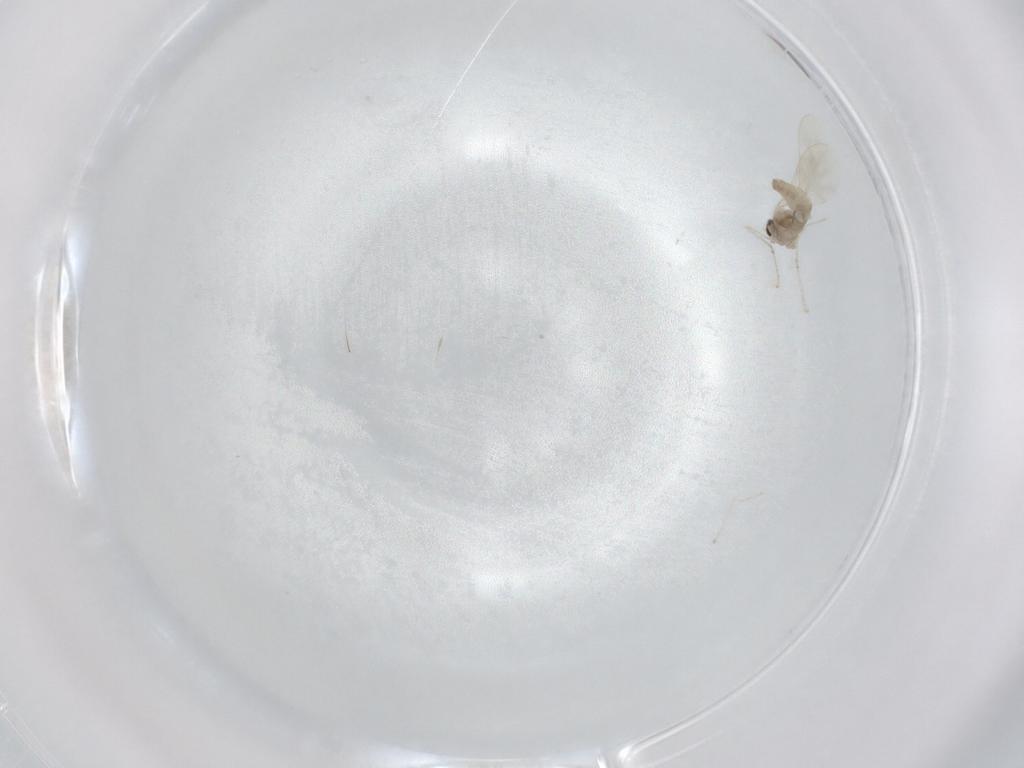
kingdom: Animalia
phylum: Arthropoda
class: Insecta
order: Diptera
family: Cecidomyiidae
